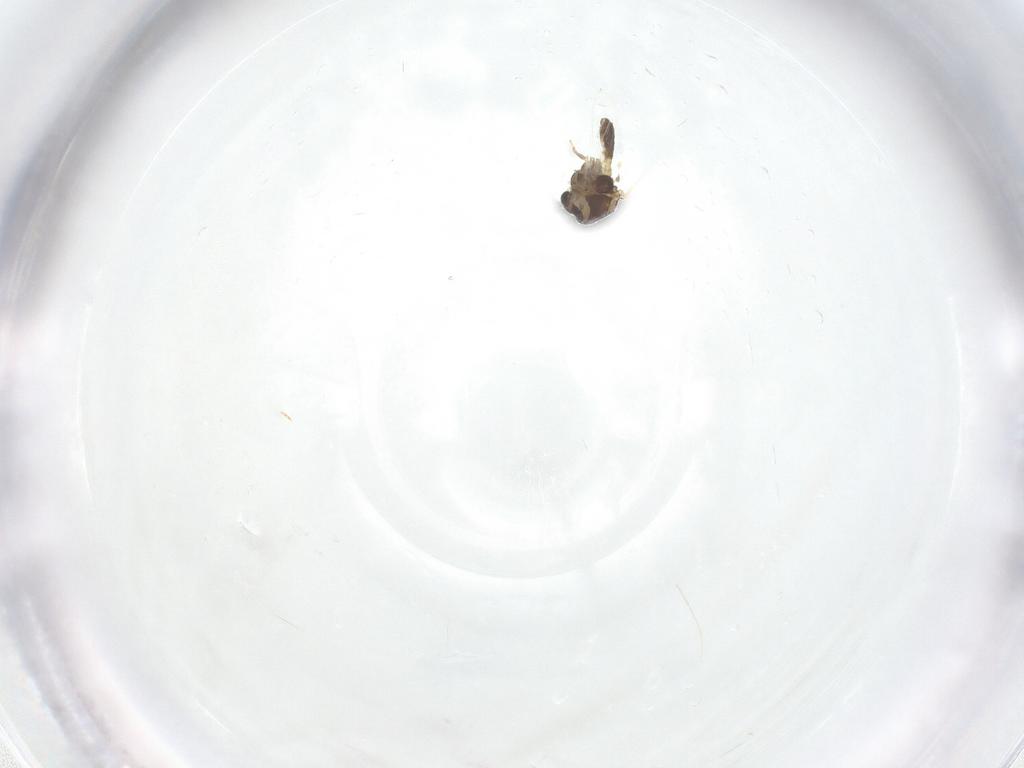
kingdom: Animalia
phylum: Arthropoda
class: Insecta
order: Diptera
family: Chironomidae
